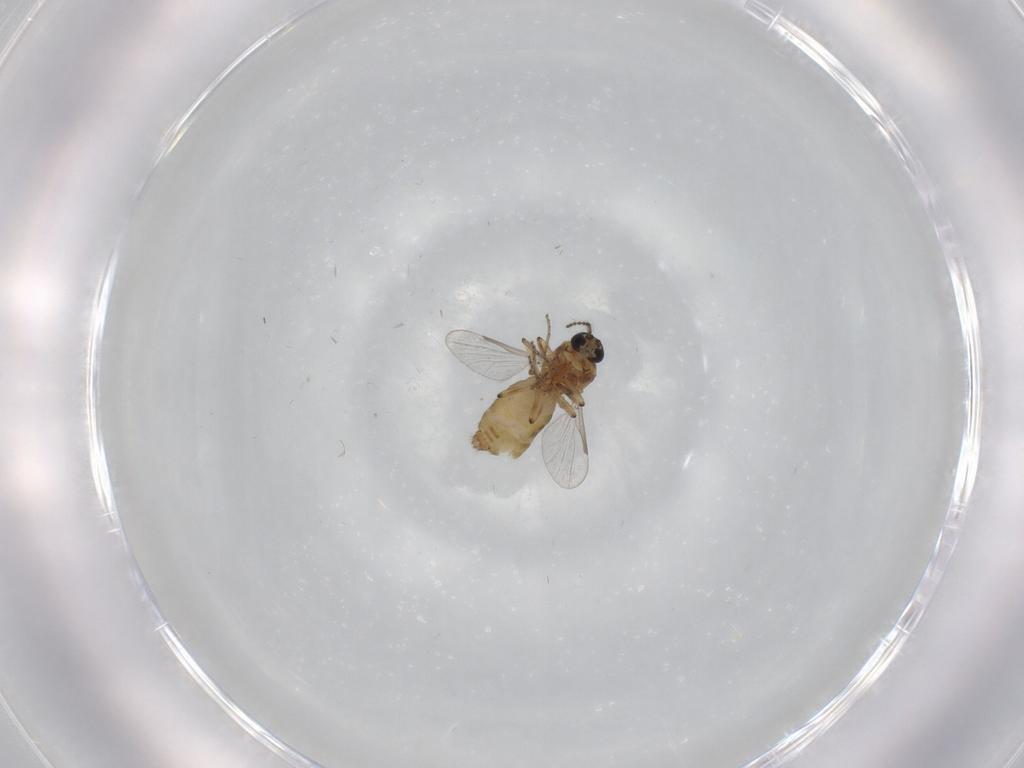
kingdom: Animalia
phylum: Arthropoda
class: Insecta
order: Diptera
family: Ceratopogonidae
